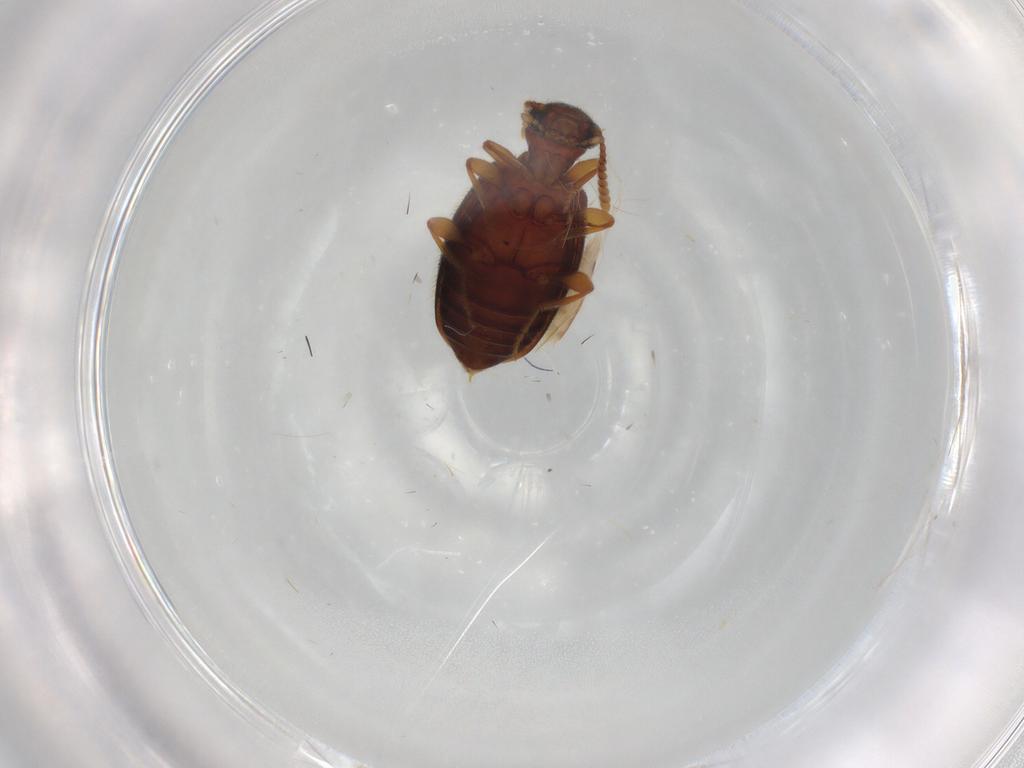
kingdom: Animalia
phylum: Arthropoda
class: Insecta
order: Coleoptera
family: Anthicidae
